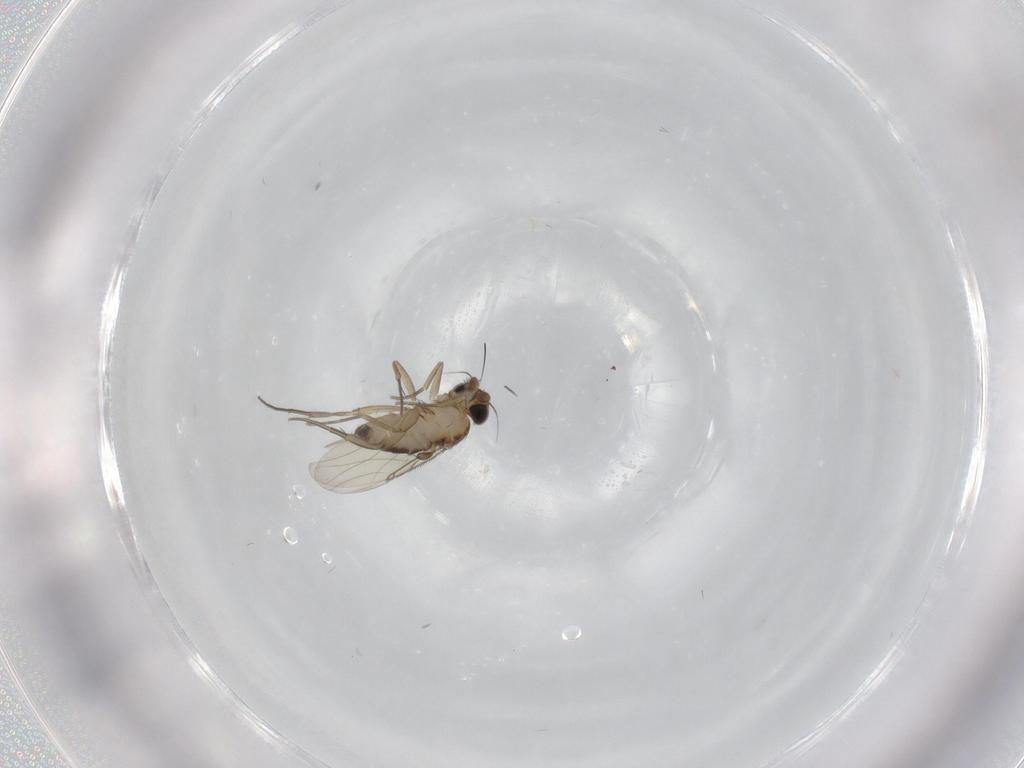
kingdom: Animalia
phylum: Arthropoda
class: Insecta
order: Diptera
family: Phoridae
